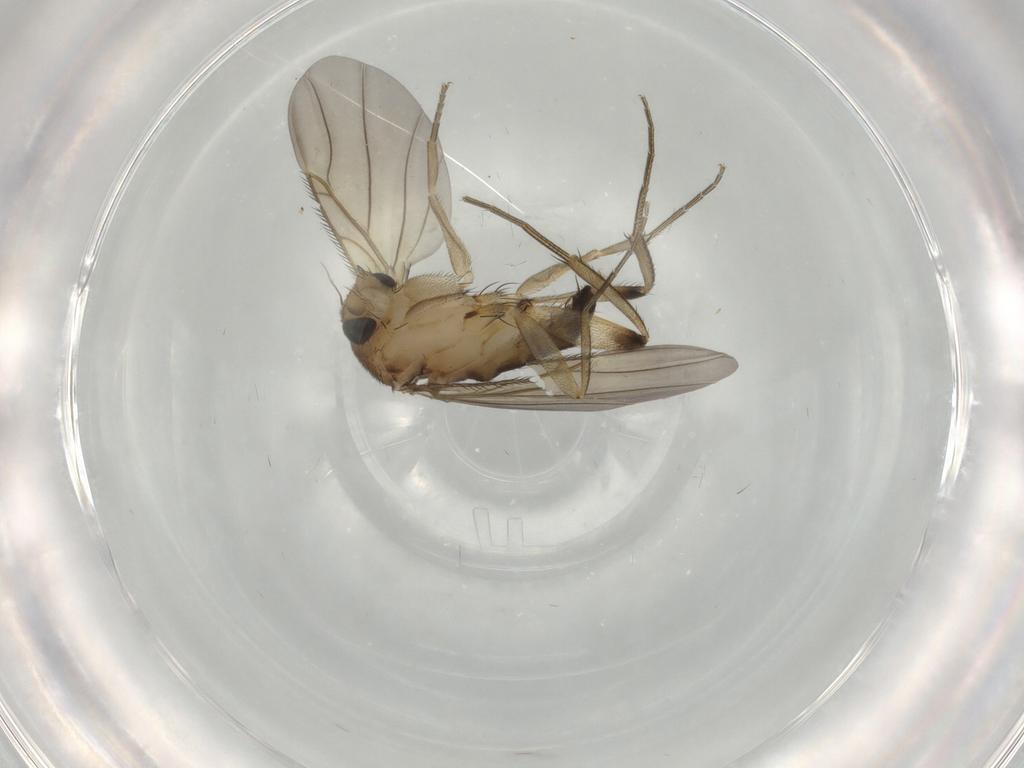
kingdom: Animalia
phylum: Arthropoda
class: Insecta
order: Diptera
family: Phoridae
